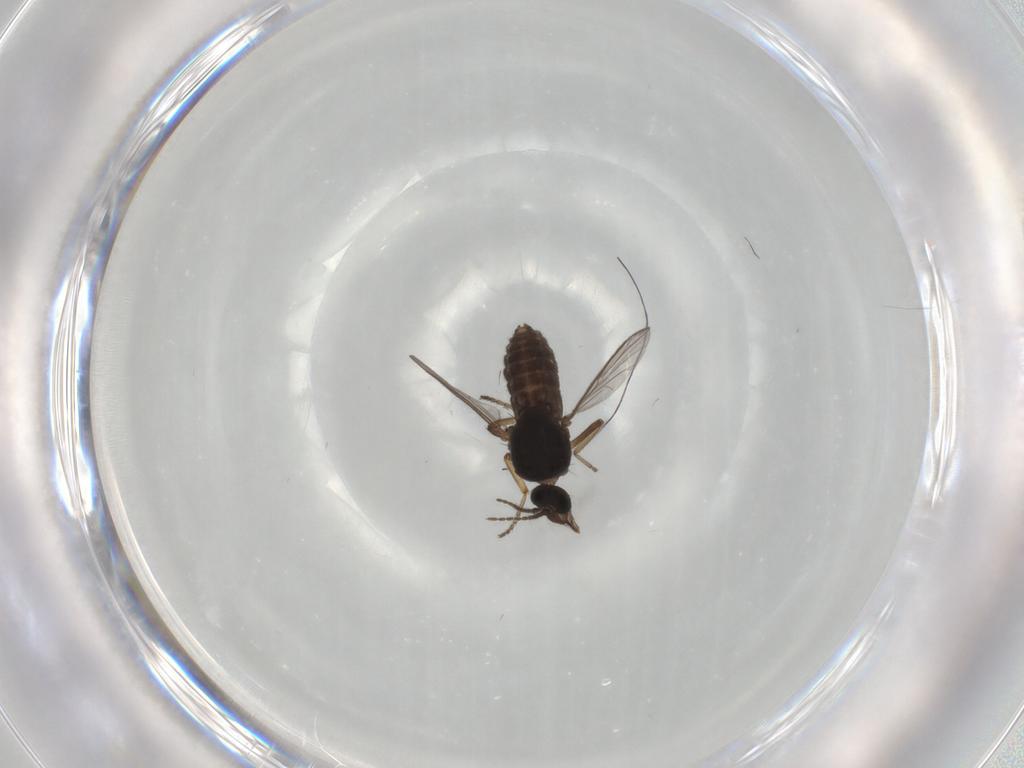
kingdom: Animalia
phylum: Arthropoda
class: Insecta
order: Diptera
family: Ceratopogonidae
